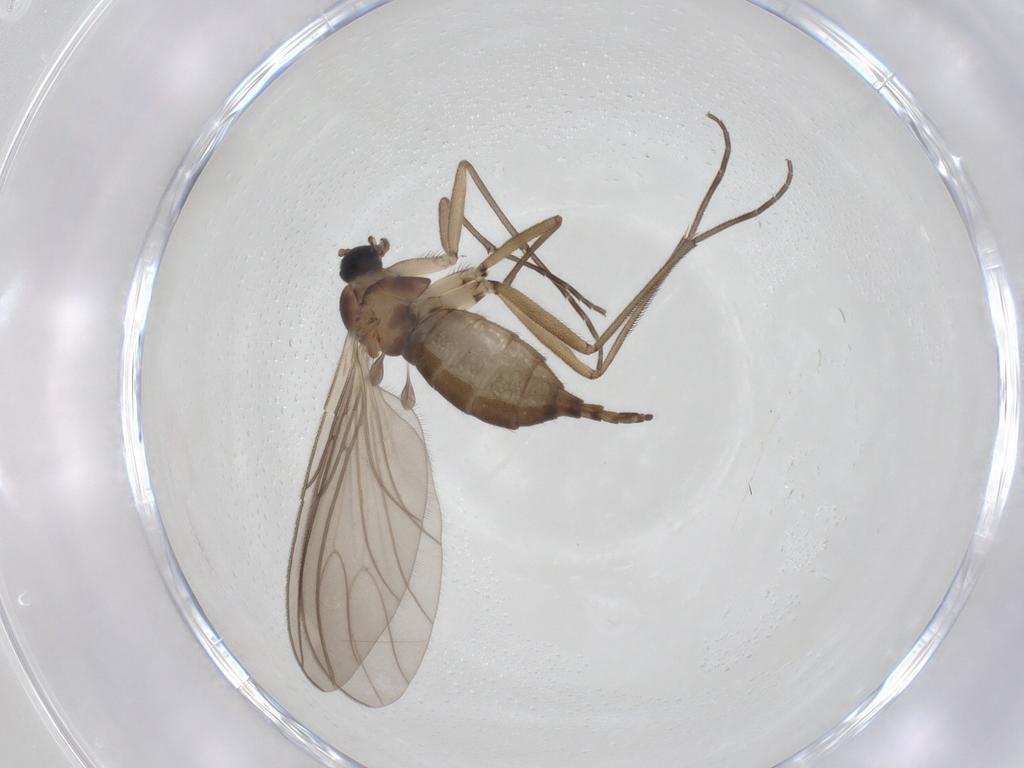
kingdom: Animalia
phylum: Arthropoda
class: Insecta
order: Diptera
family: Sciaridae
